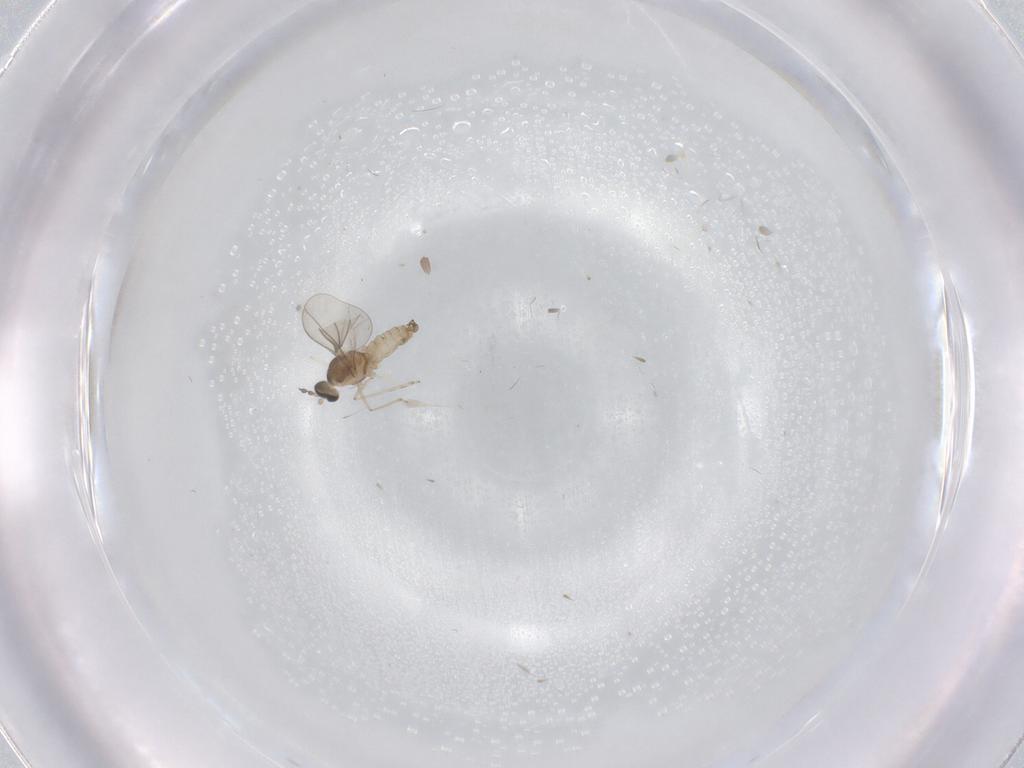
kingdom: Animalia
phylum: Arthropoda
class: Insecta
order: Diptera
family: Cecidomyiidae
